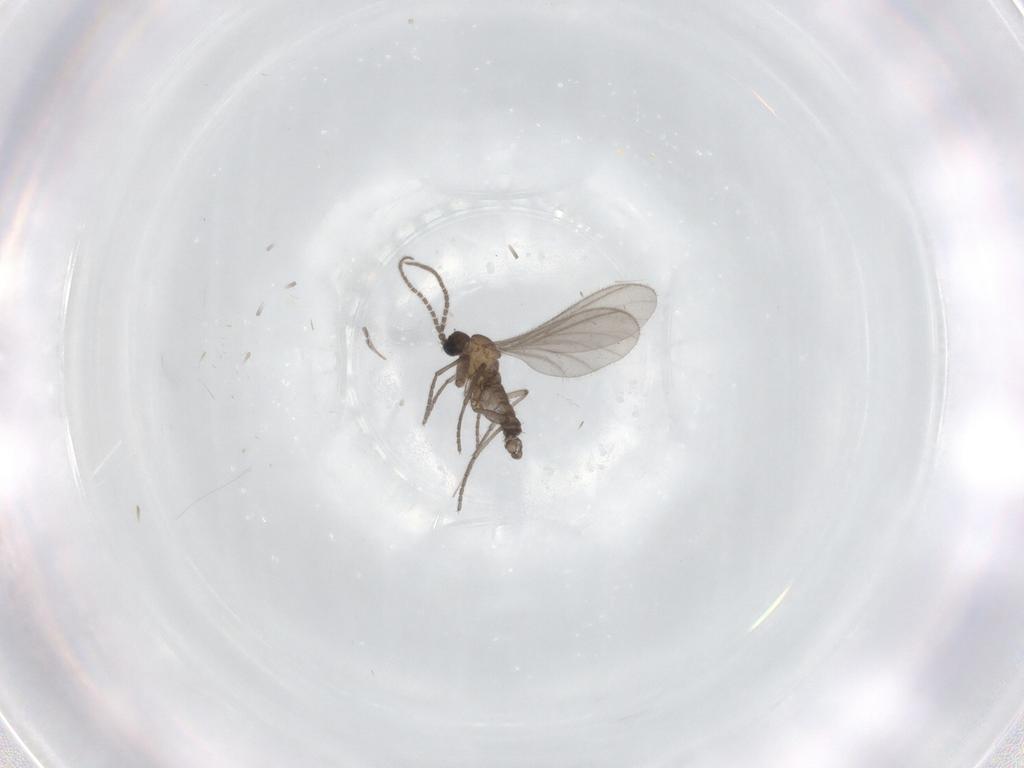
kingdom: Animalia
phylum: Arthropoda
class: Insecta
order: Diptera
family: Sciaridae
